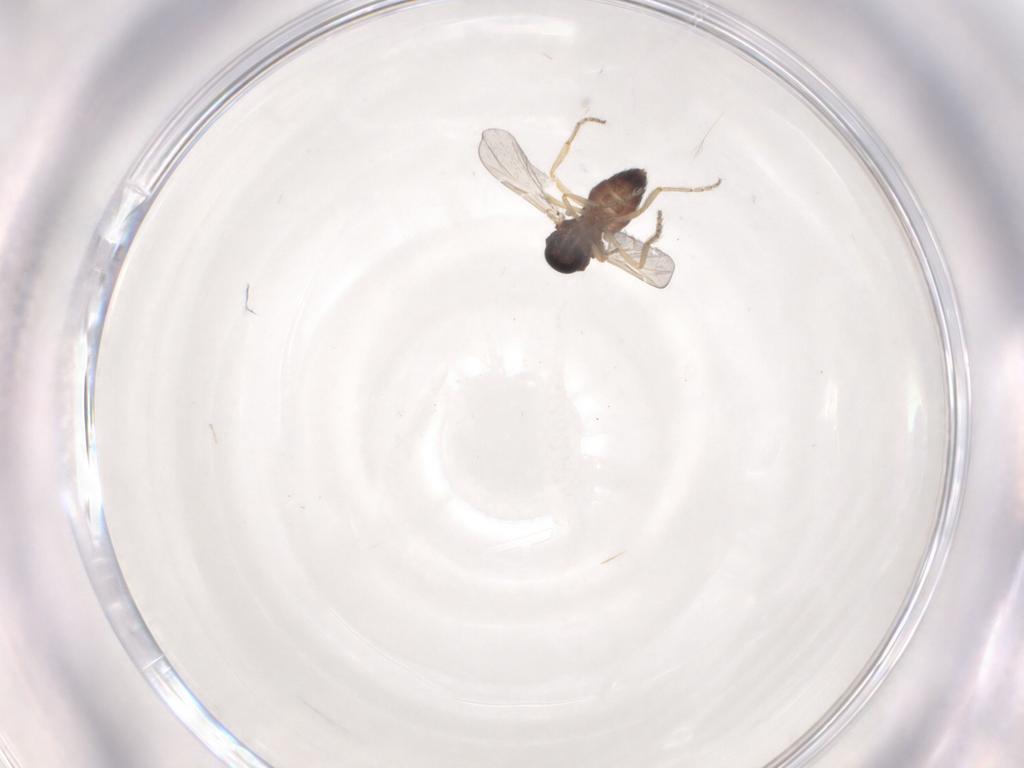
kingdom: Animalia
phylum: Arthropoda
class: Insecta
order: Diptera
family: Ceratopogonidae
